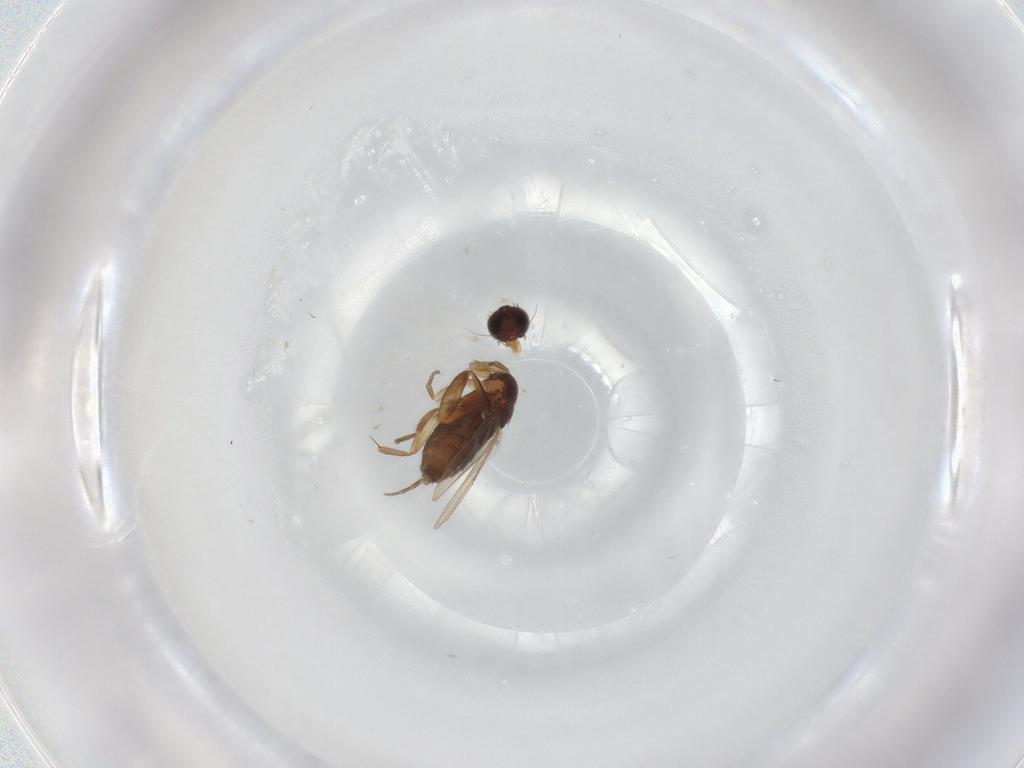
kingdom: Animalia
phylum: Arthropoda
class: Insecta
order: Diptera
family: Phoridae
